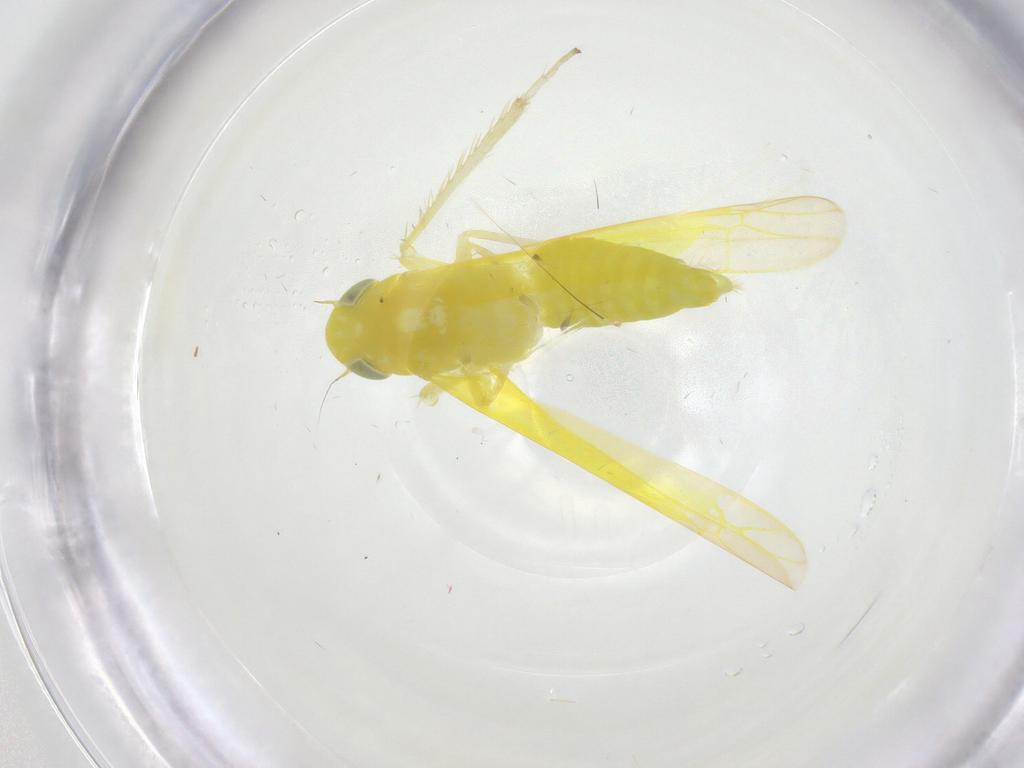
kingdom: Animalia
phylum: Arthropoda
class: Insecta
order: Hemiptera
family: Cicadellidae
